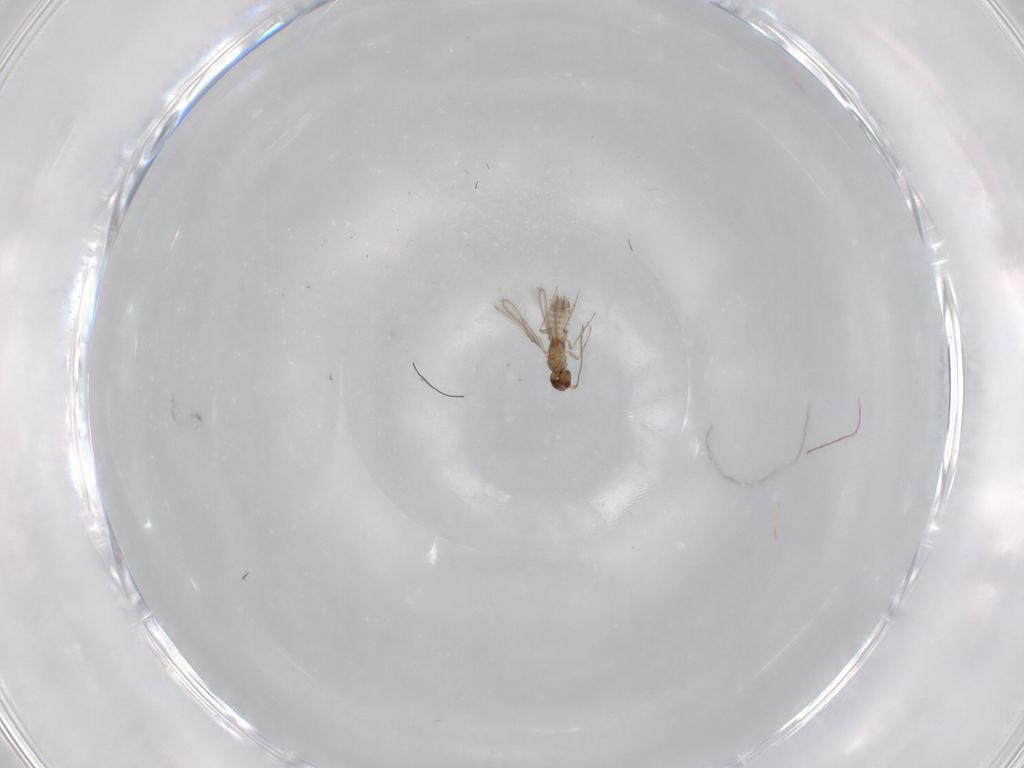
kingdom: Animalia
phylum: Arthropoda
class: Insecta
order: Hymenoptera
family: Mymaridae
